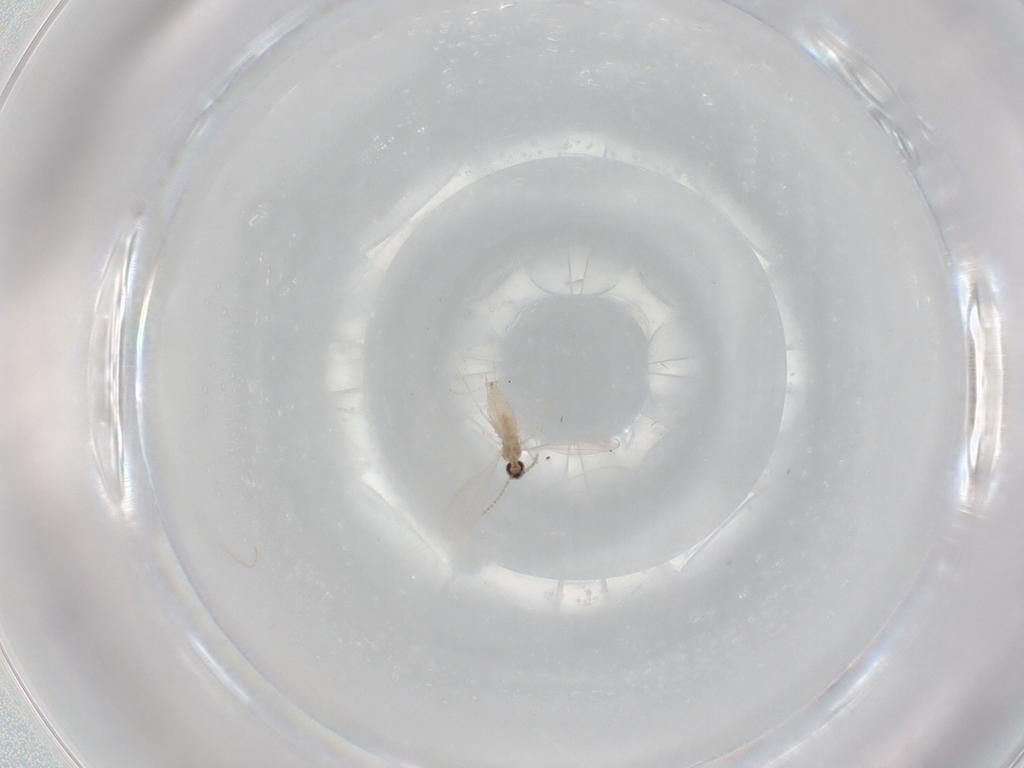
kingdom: Animalia
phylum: Arthropoda
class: Insecta
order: Diptera
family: Cecidomyiidae
